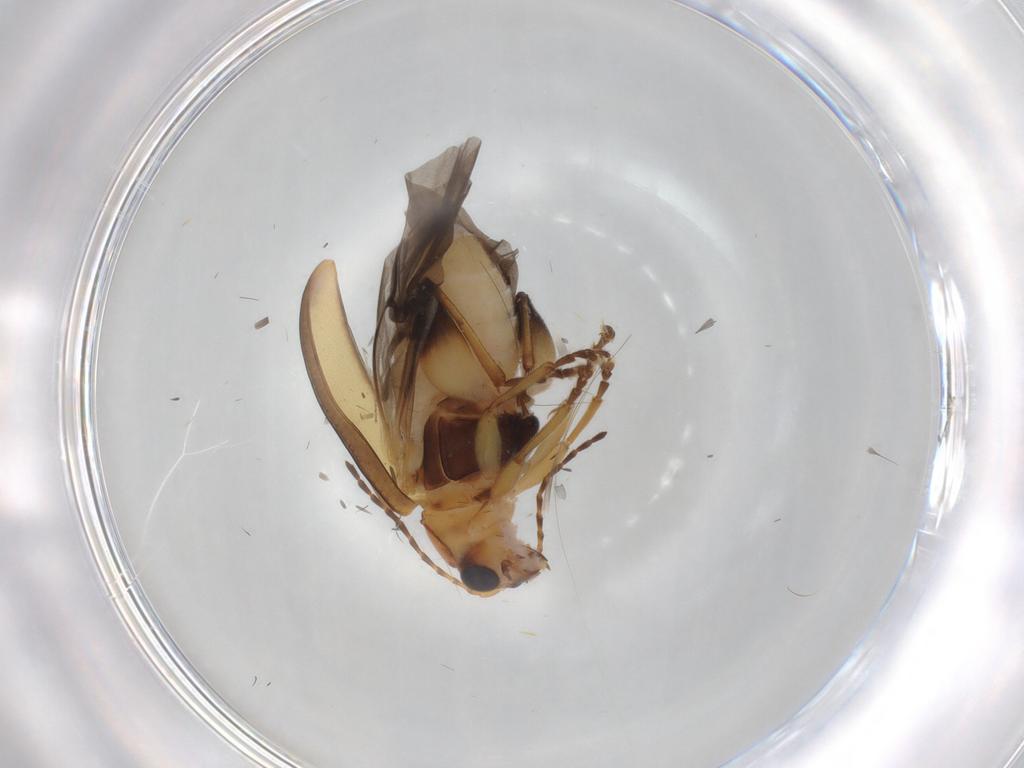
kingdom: Animalia
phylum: Arthropoda
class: Insecta
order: Coleoptera
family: Chrysomelidae
